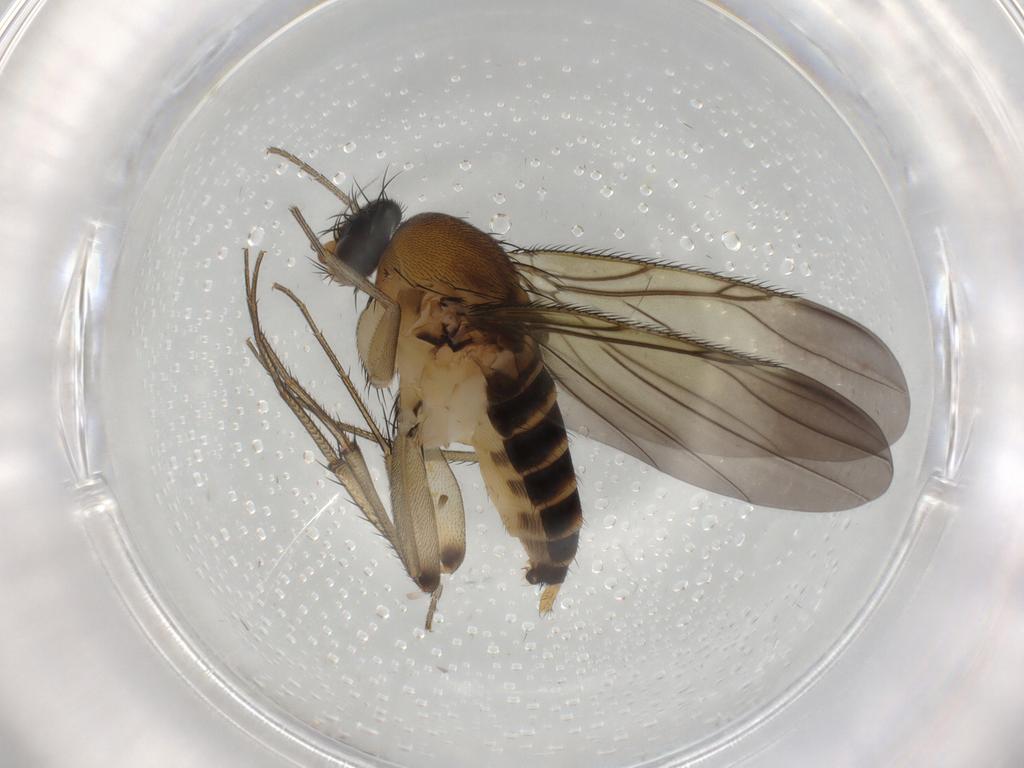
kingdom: Animalia
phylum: Arthropoda
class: Insecta
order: Diptera
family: Phoridae
